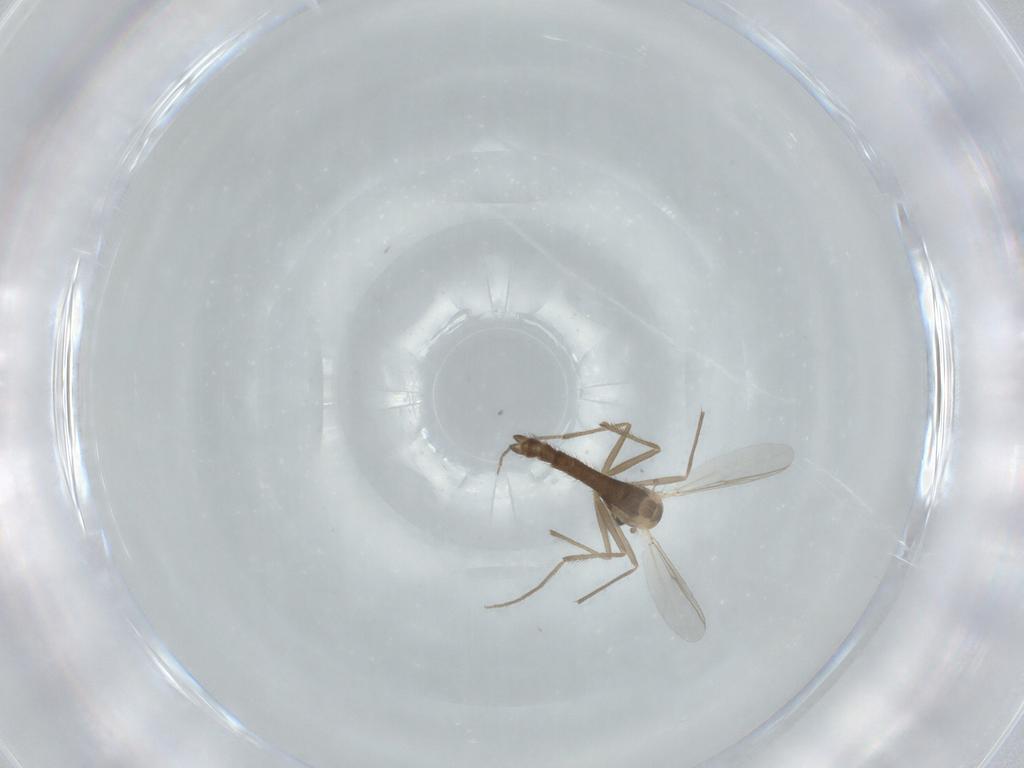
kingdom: Animalia
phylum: Arthropoda
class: Insecta
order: Diptera
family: Chironomidae
